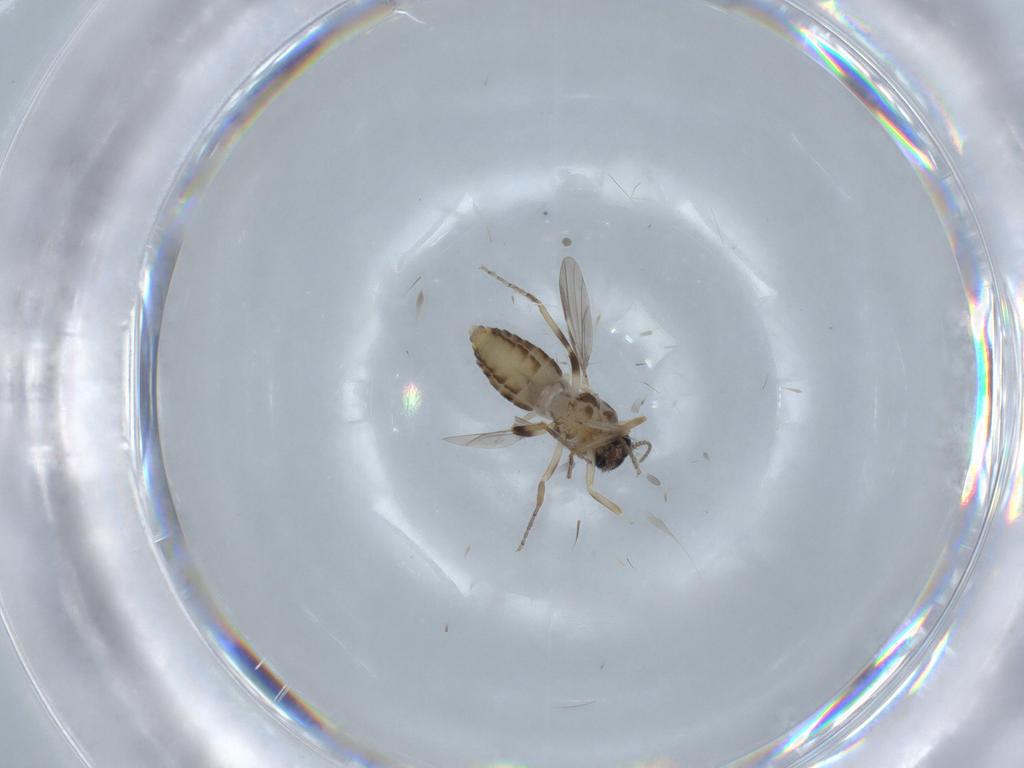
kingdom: Animalia
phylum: Arthropoda
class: Insecta
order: Diptera
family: Ceratopogonidae
